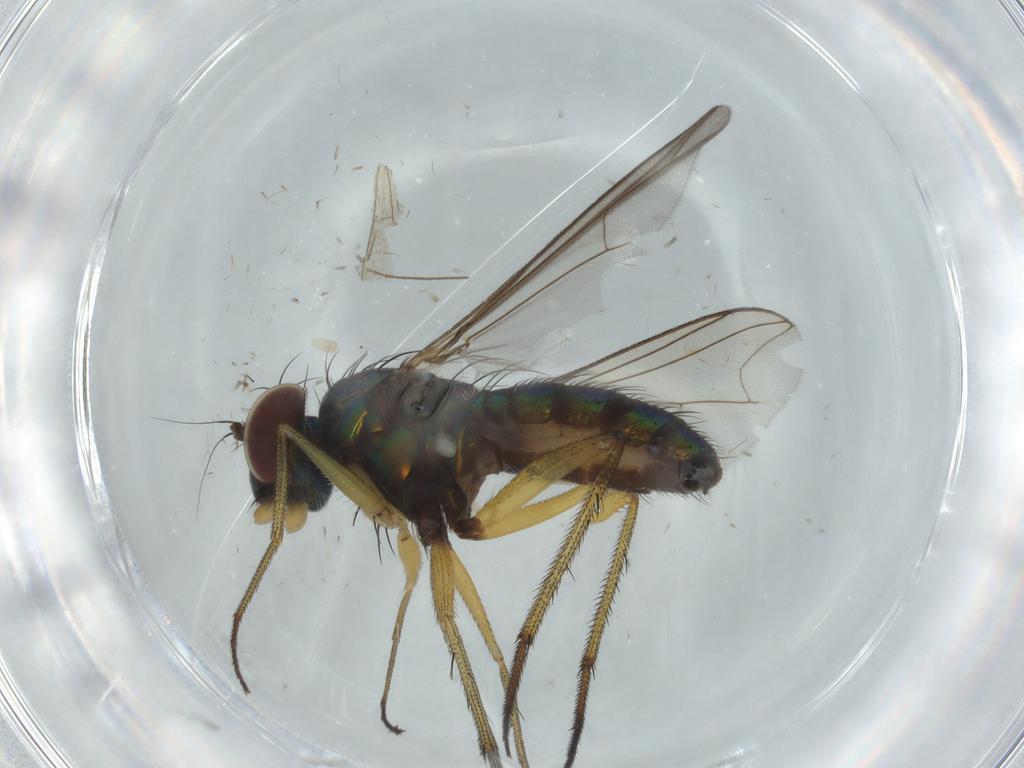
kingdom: Animalia
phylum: Arthropoda
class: Insecta
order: Diptera
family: Dolichopodidae
